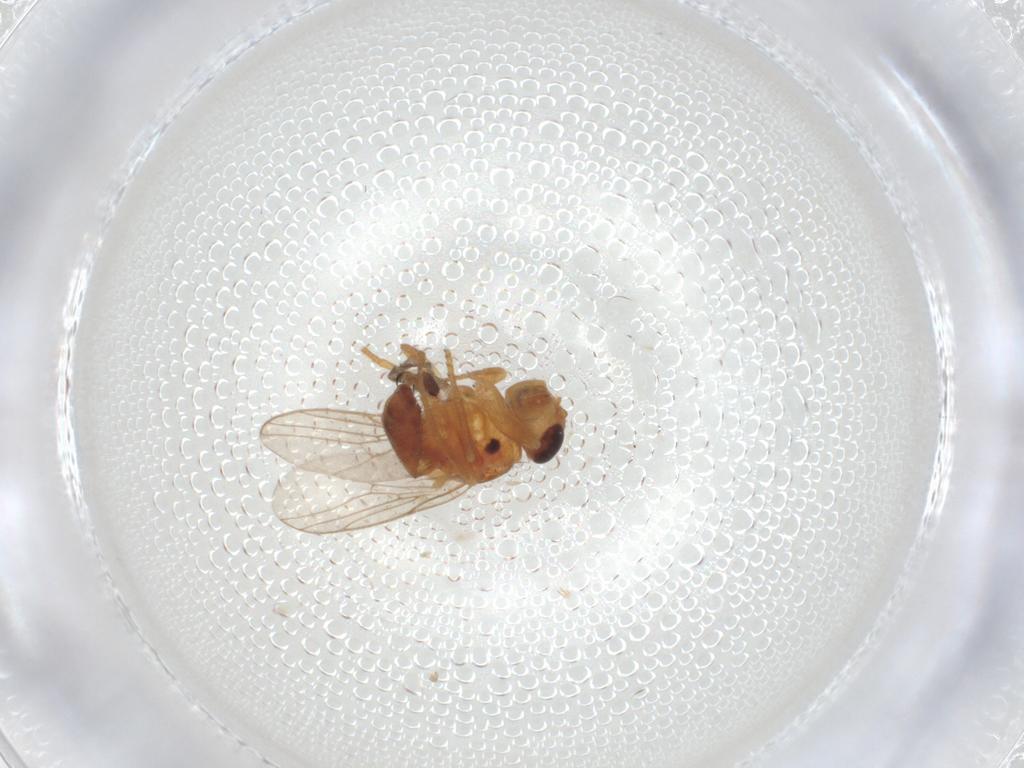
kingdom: Animalia
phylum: Arthropoda
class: Insecta
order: Diptera
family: Chloropidae
